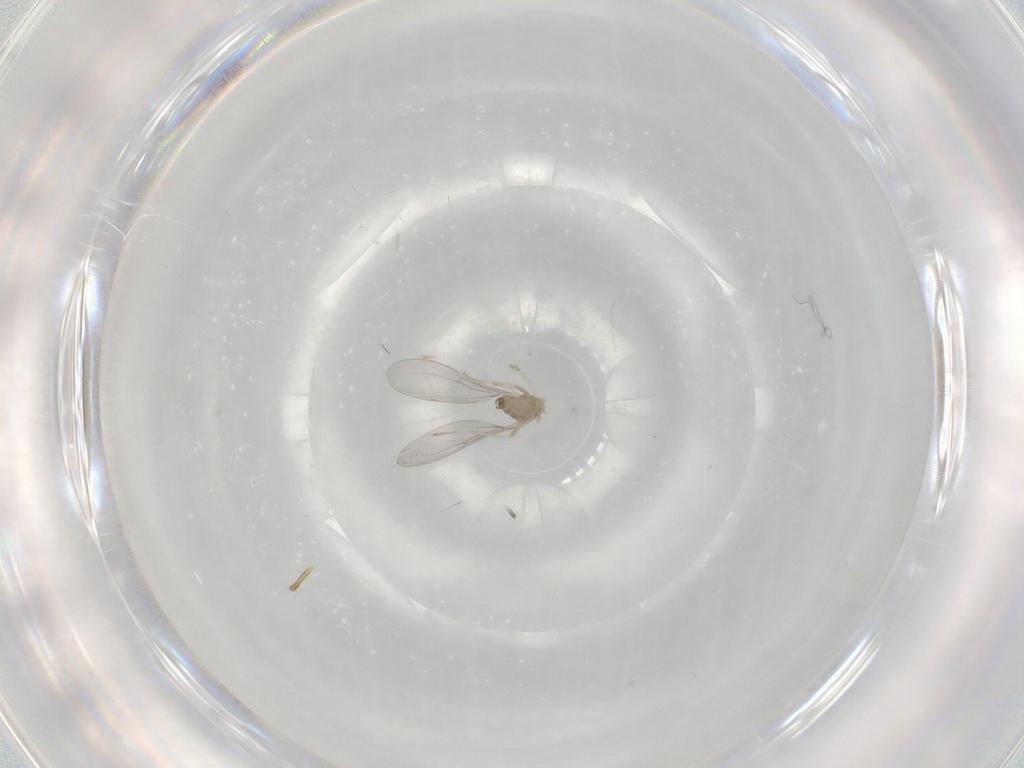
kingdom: Animalia
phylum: Arthropoda
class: Insecta
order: Diptera
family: Cecidomyiidae
